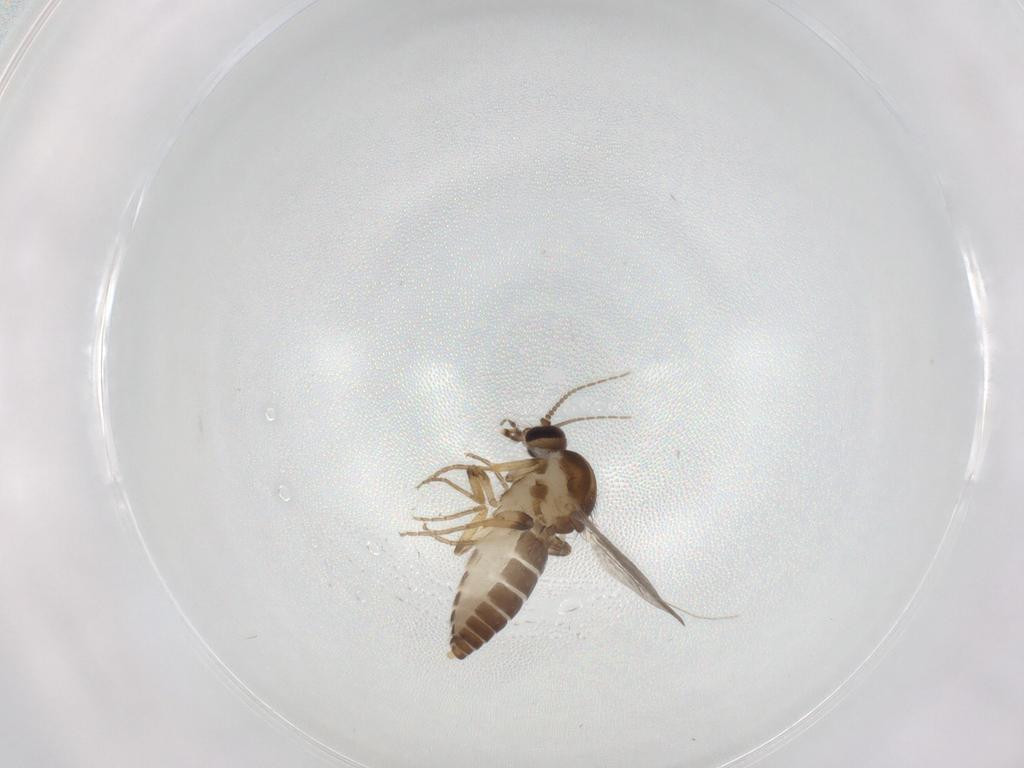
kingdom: Animalia
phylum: Arthropoda
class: Insecta
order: Diptera
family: Ceratopogonidae
